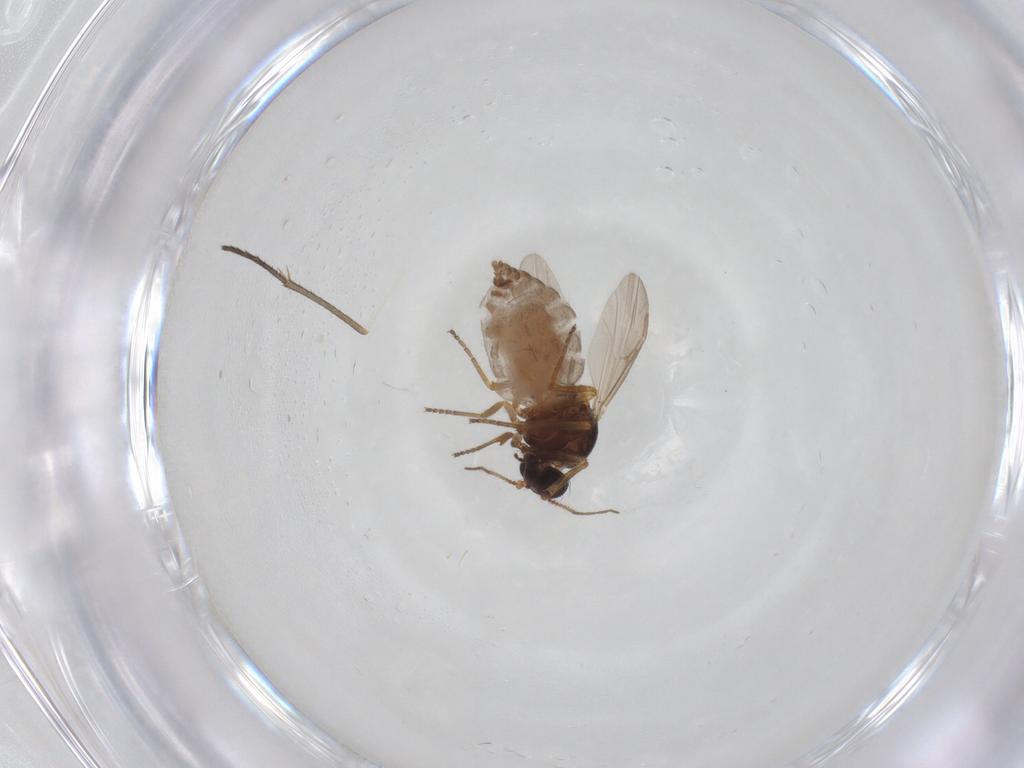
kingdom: Animalia
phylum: Arthropoda
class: Insecta
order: Diptera
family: Ceratopogonidae
